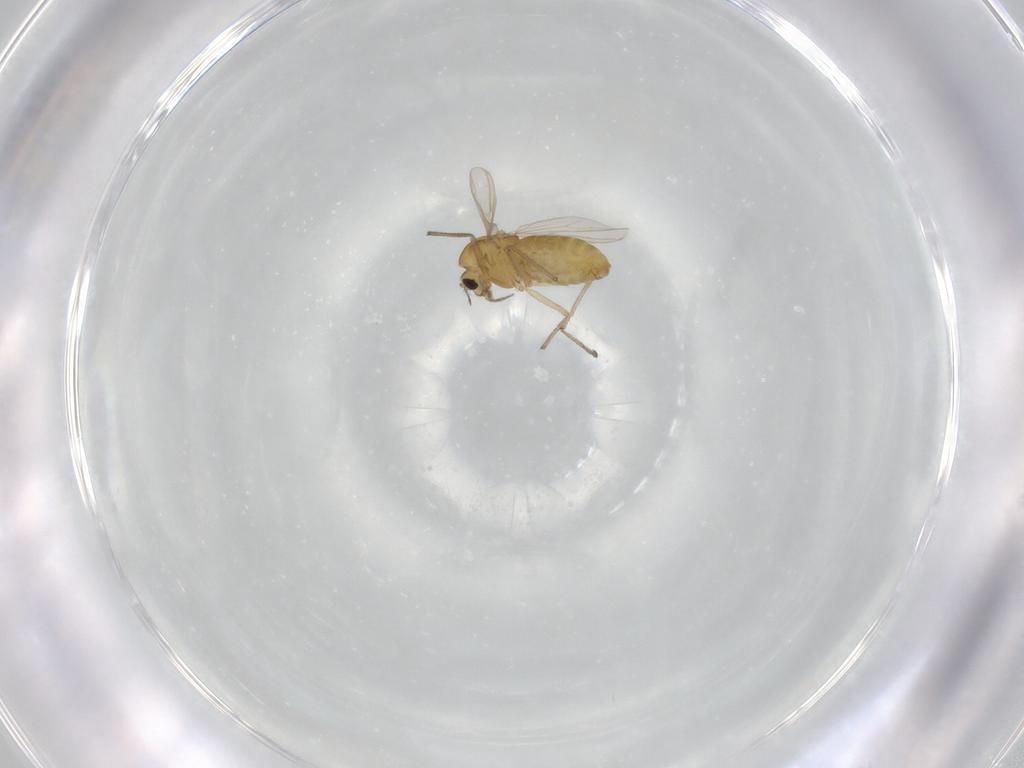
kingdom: Animalia
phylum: Arthropoda
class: Insecta
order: Diptera
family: Chironomidae
